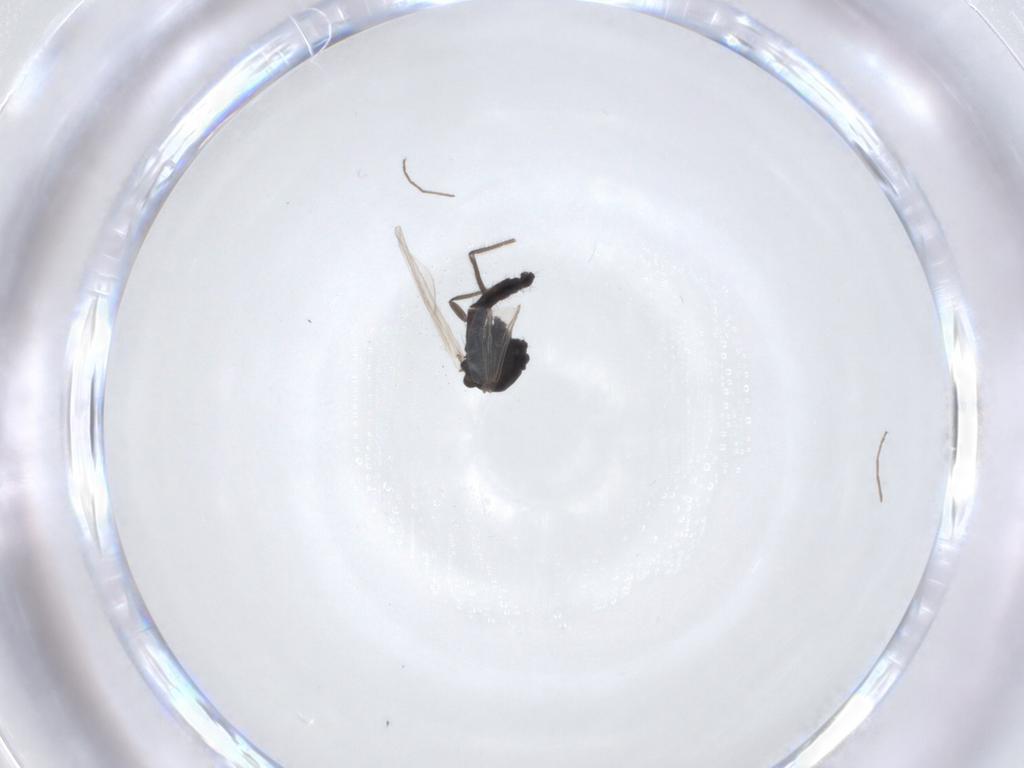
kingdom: Animalia
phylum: Arthropoda
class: Insecta
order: Diptera
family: Chironomidae
